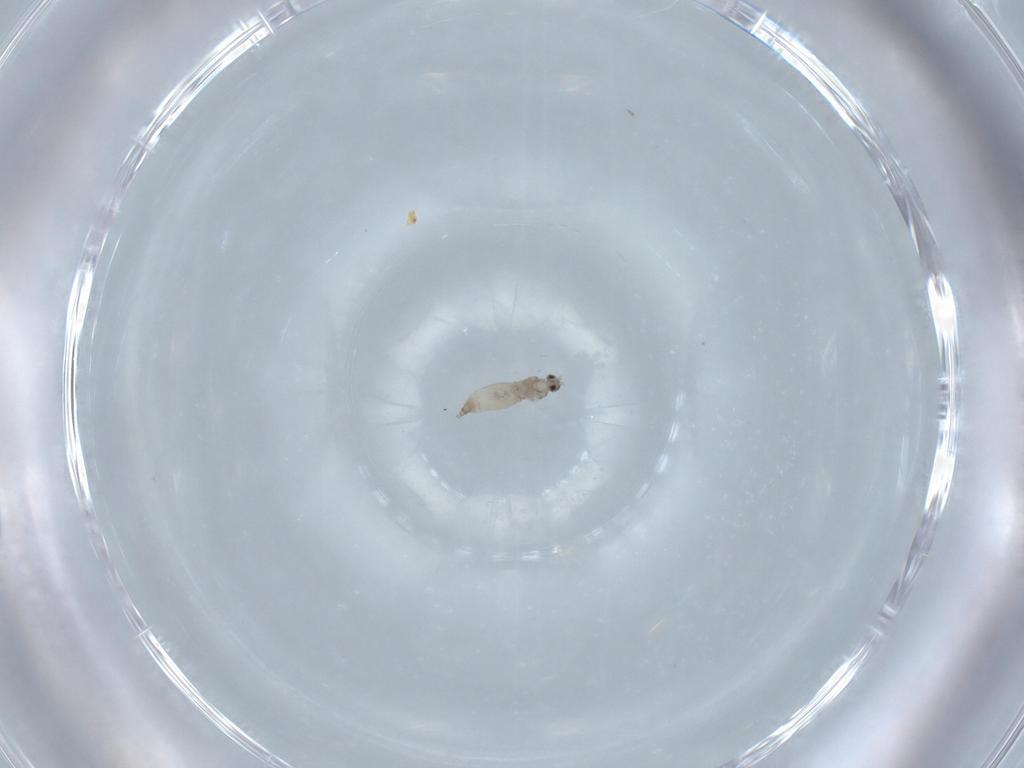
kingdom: Animalia
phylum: Arthropoda
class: Insecta
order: Diptera
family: Cecidomyiidae
